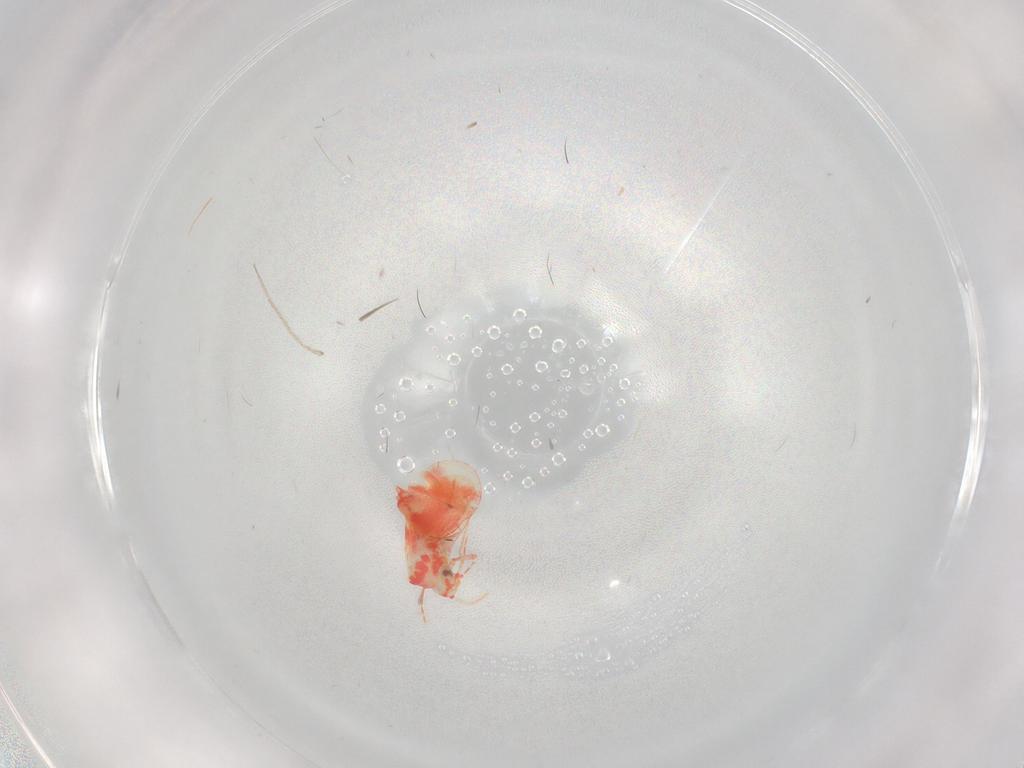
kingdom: Animalia
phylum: Arthropoda
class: Insecta
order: Hemiptera
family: Aleyrodidae
